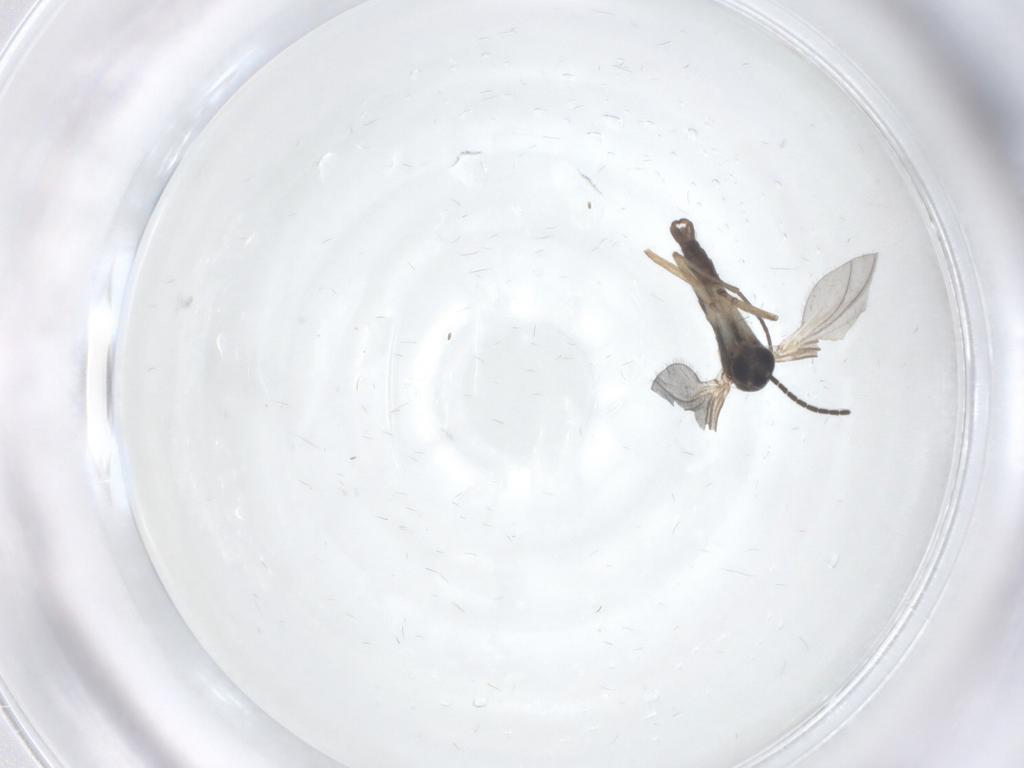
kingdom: Animalia
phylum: Arthropoda
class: Insecta
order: Diptera
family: Sciaridae
